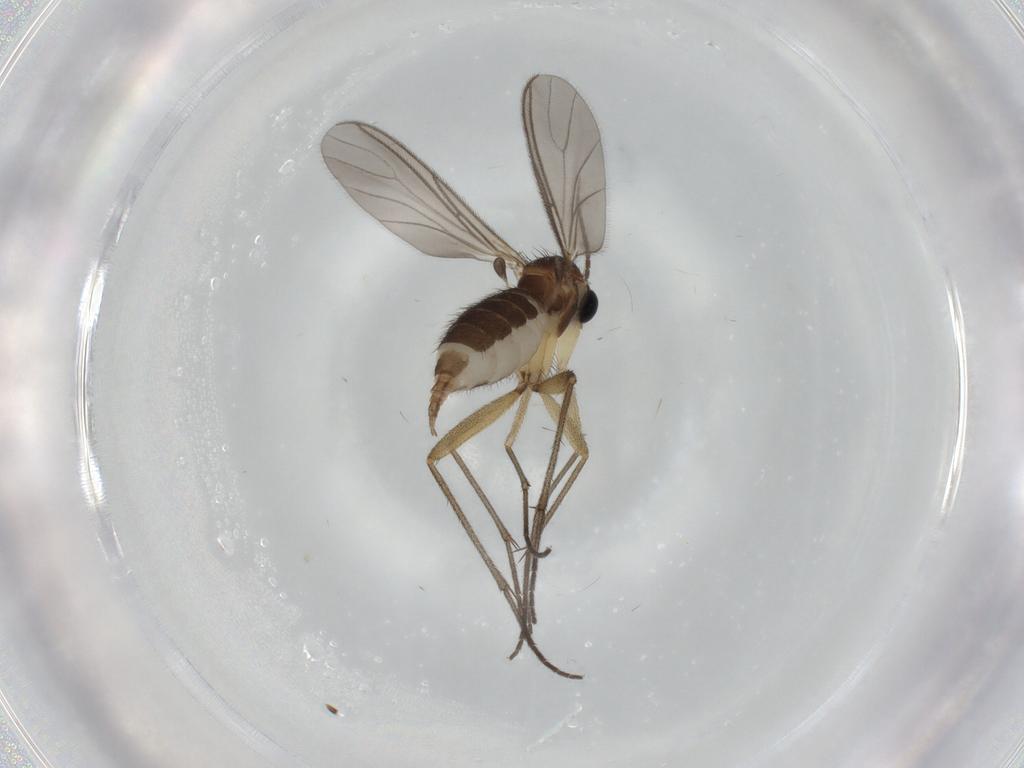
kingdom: Animalia
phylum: Arthropoda
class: Insecta
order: Diptera
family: Sciaridae
